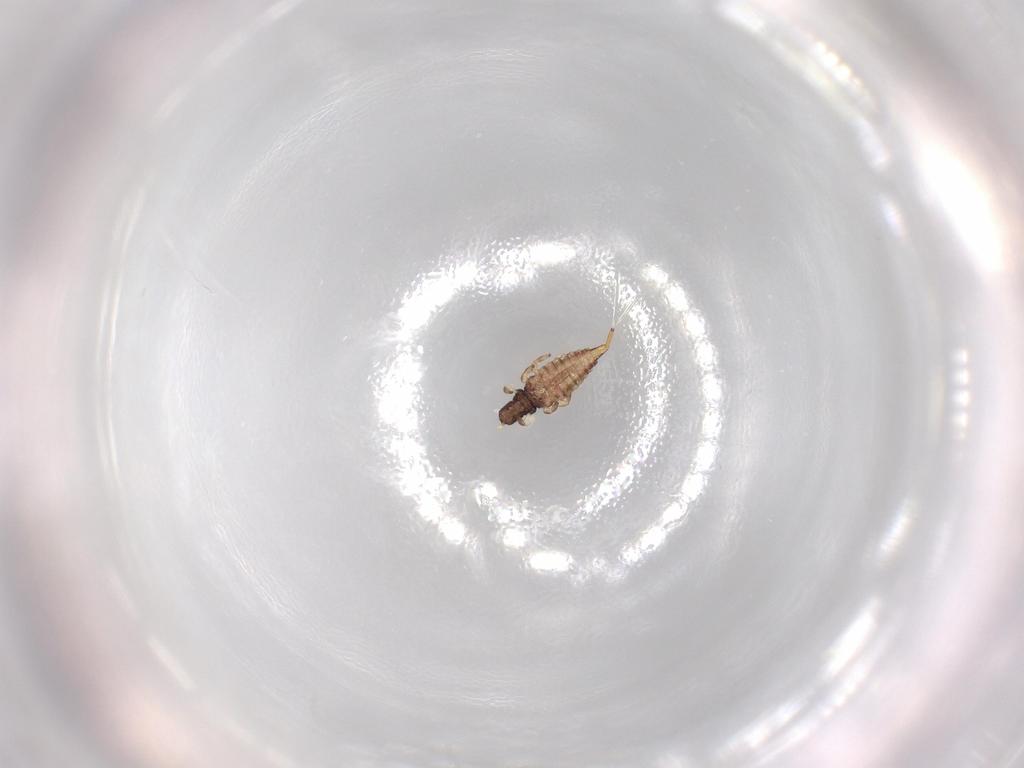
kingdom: Animalia
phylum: Arthropoda
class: Insecta
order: Thysanoptera
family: Phlaeothripidae
